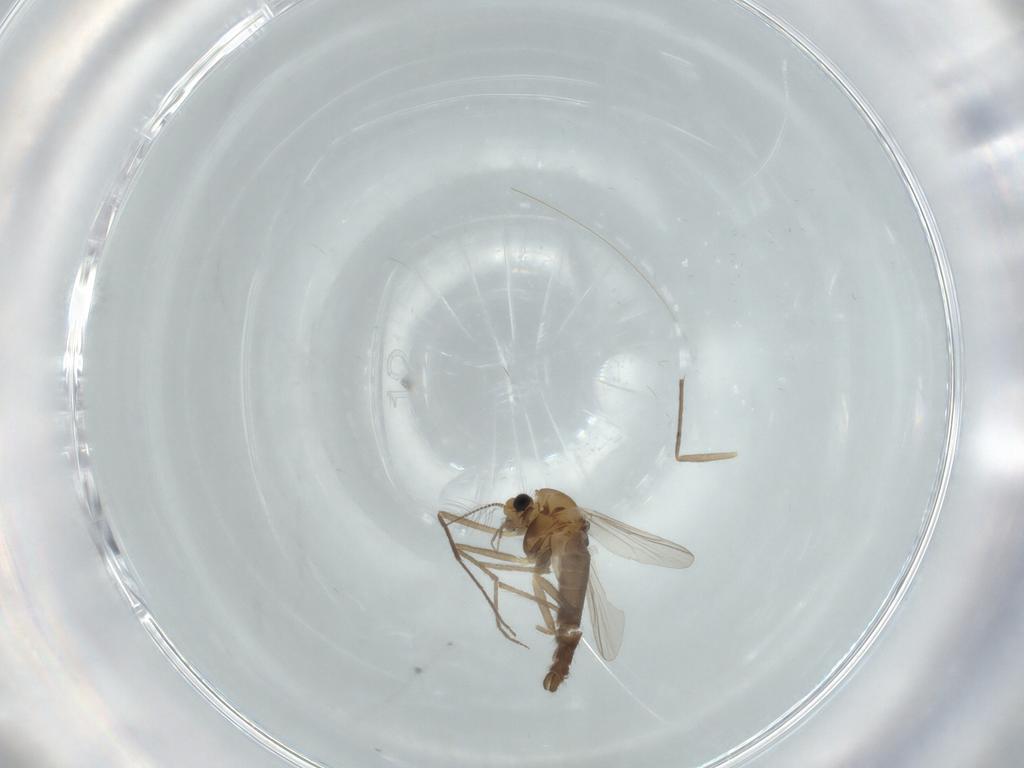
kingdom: Animalia
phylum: Arthropoda
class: Insecta
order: Diptera
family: Chironomidae
